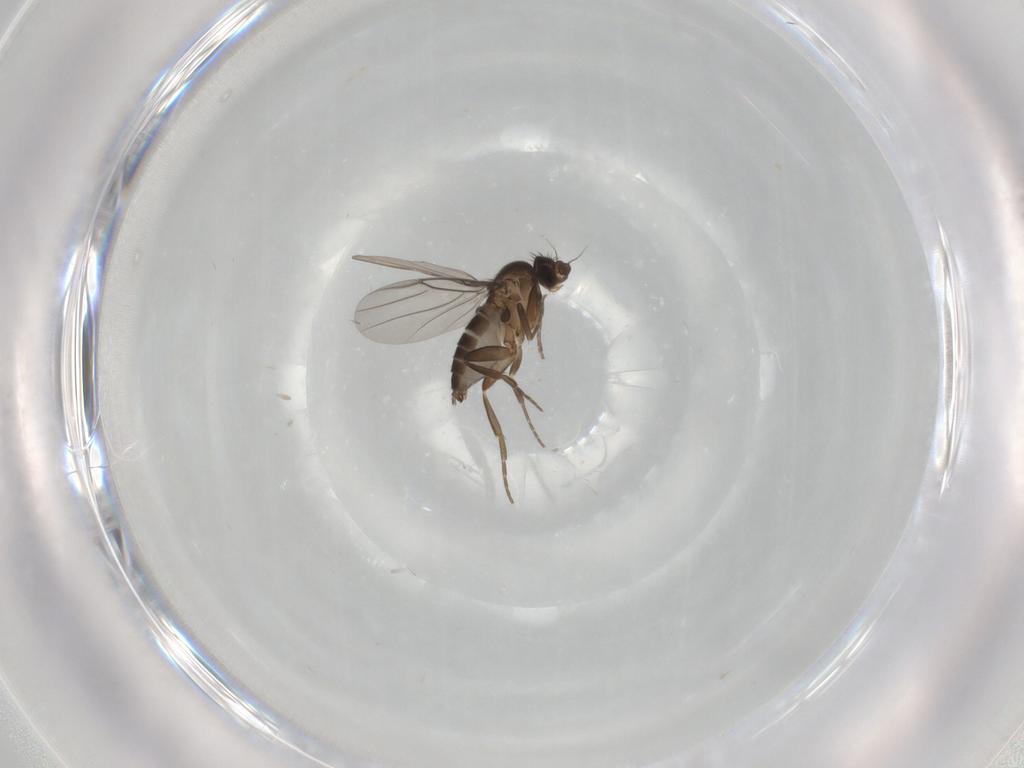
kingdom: Animalia
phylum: Arthropoda
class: Insecta
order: Diptera
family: Phoridae
